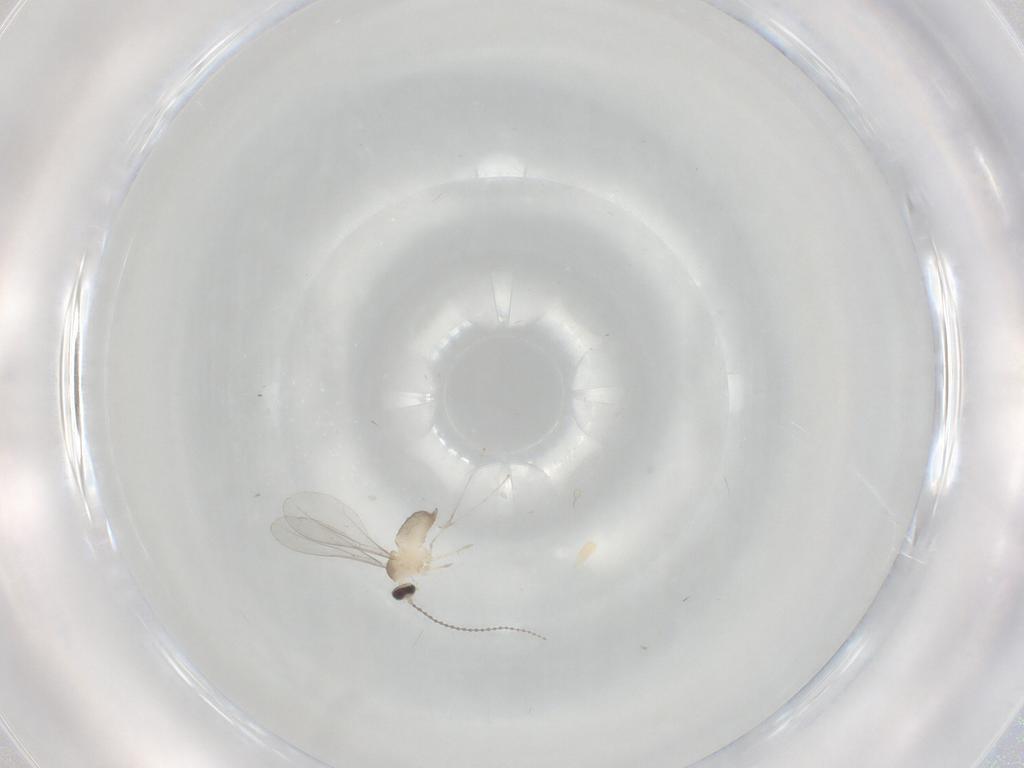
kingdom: Animalia
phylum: Arthropoda
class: Insecta
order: Diptera
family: Cecidomyiidae
